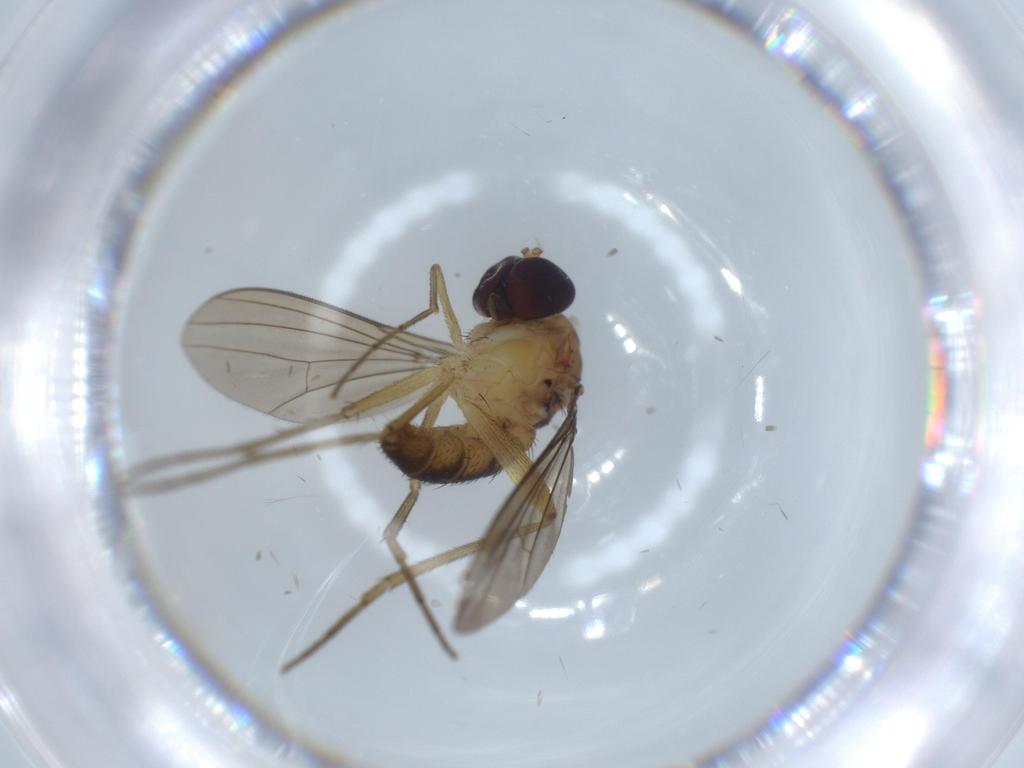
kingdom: Animalia
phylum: Arthropoda
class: Insecta
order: Diptera
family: Dolichopodidae
